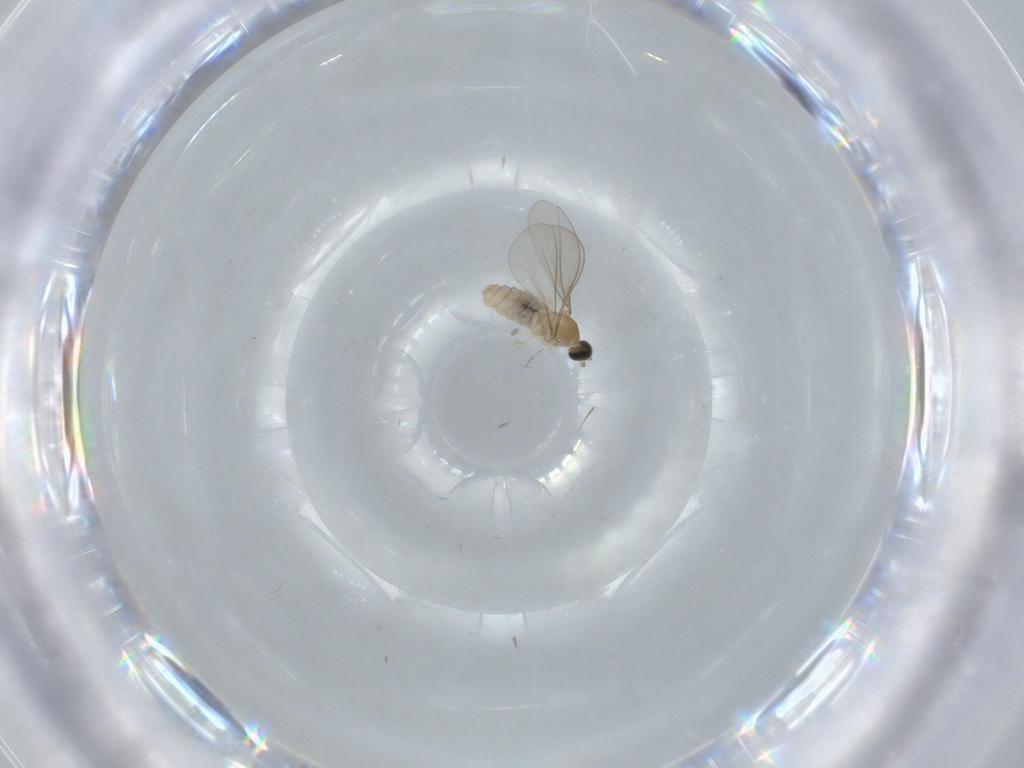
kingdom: Animalia
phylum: Arthropoda
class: Insecta
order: Diptera
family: Cecidomyiidae
